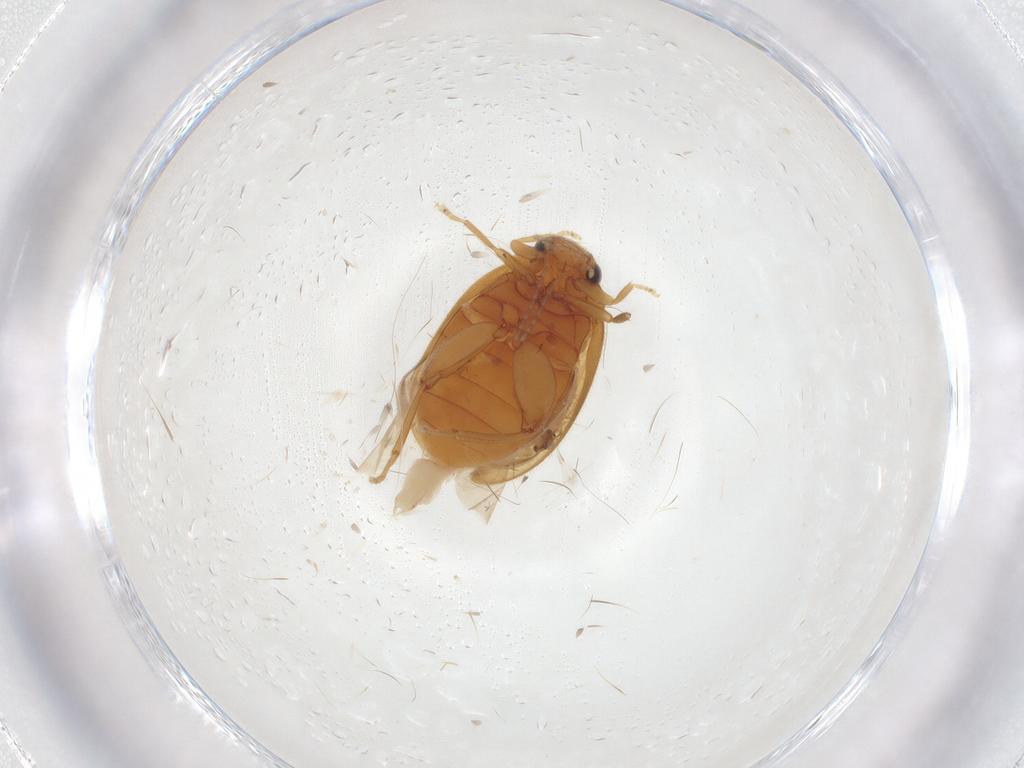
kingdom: Animalia
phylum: Arthropoda
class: Insecta
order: Coleoptera
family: Scirtidae
